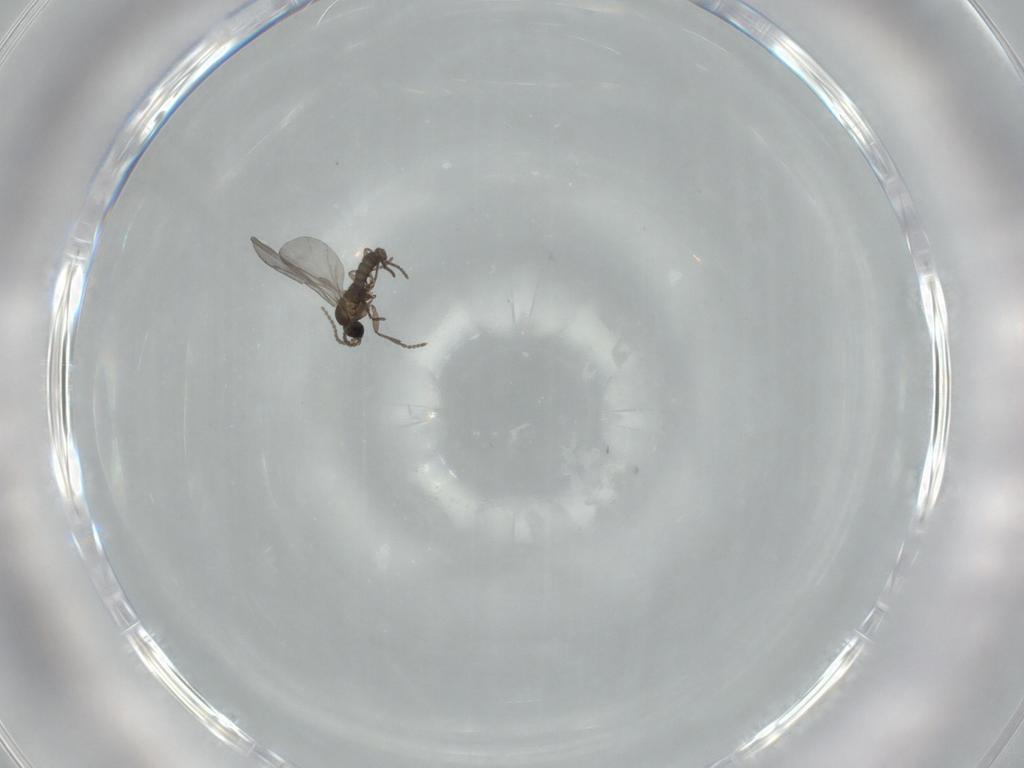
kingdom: Animalia
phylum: Arthropoda
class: Insecta
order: Diptera
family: Cecidomyiidae
